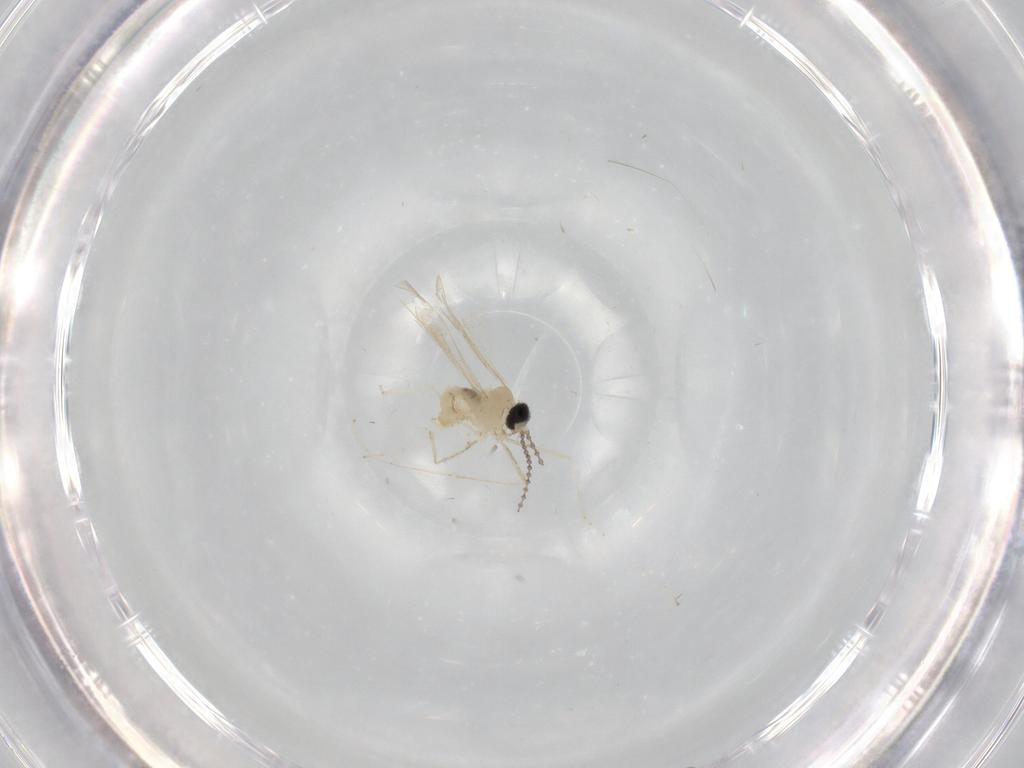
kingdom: Animalia
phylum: Arthropoda
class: Insecta
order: Diptera
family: Cecidomyiidae
